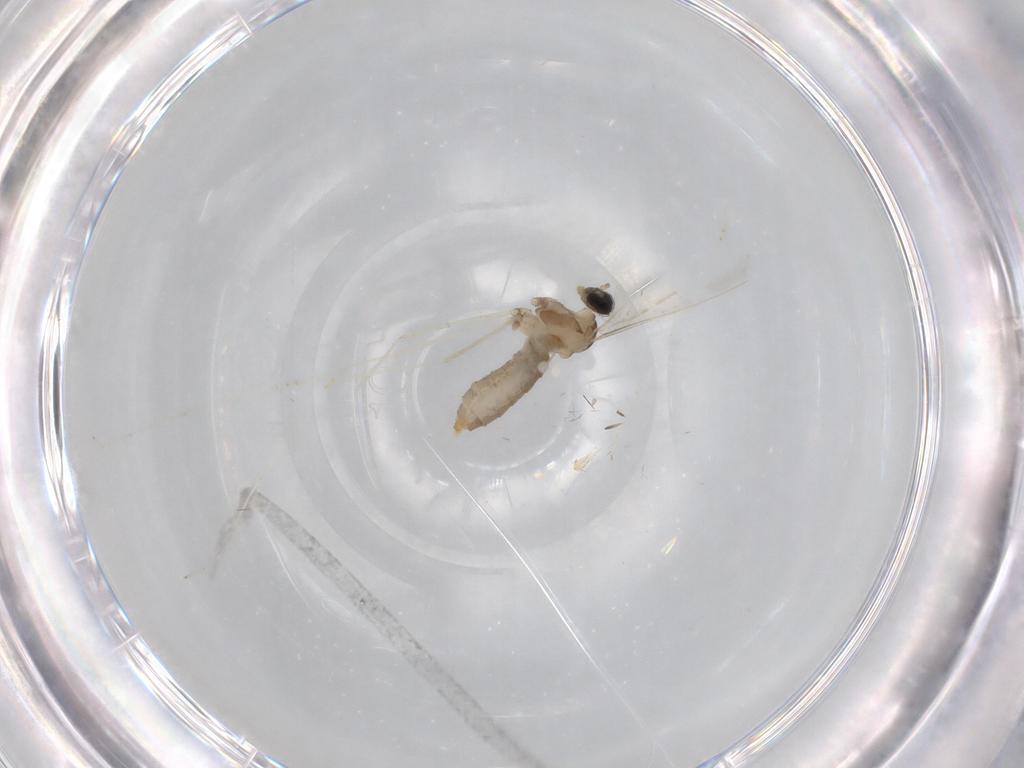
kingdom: Animalia
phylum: Arthropoda
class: Insecta
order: Diptera
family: Cecidomyiidae
